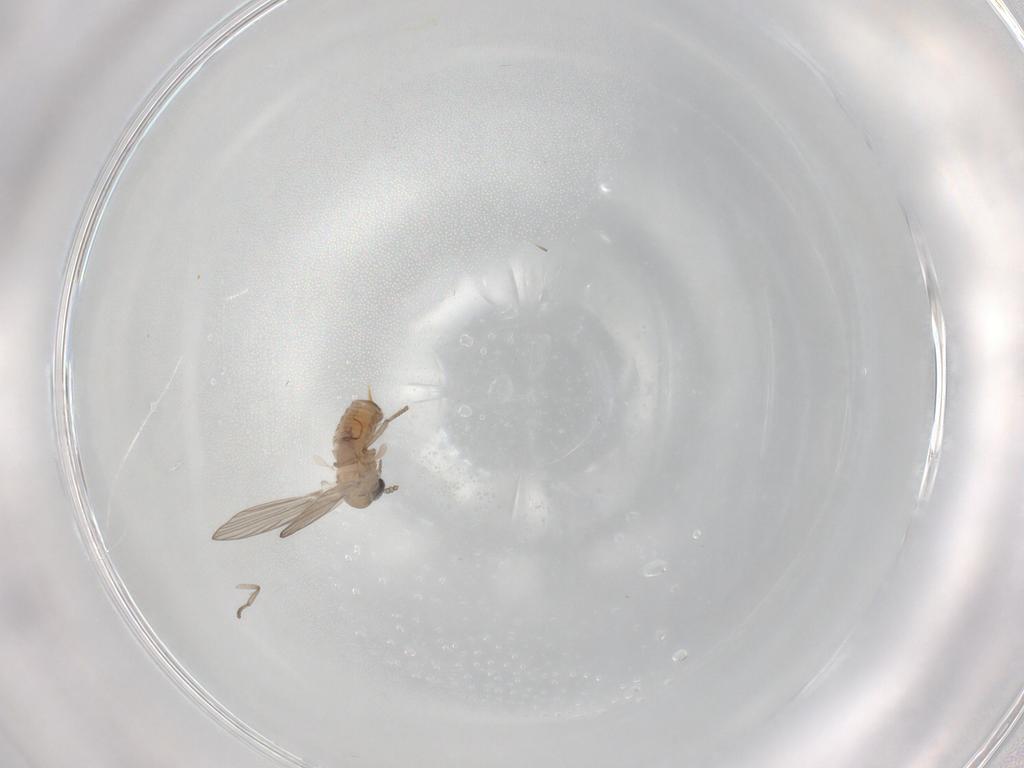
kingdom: Animalia
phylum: Arthropoda
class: Insecta
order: Diptera
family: Psychodidae
